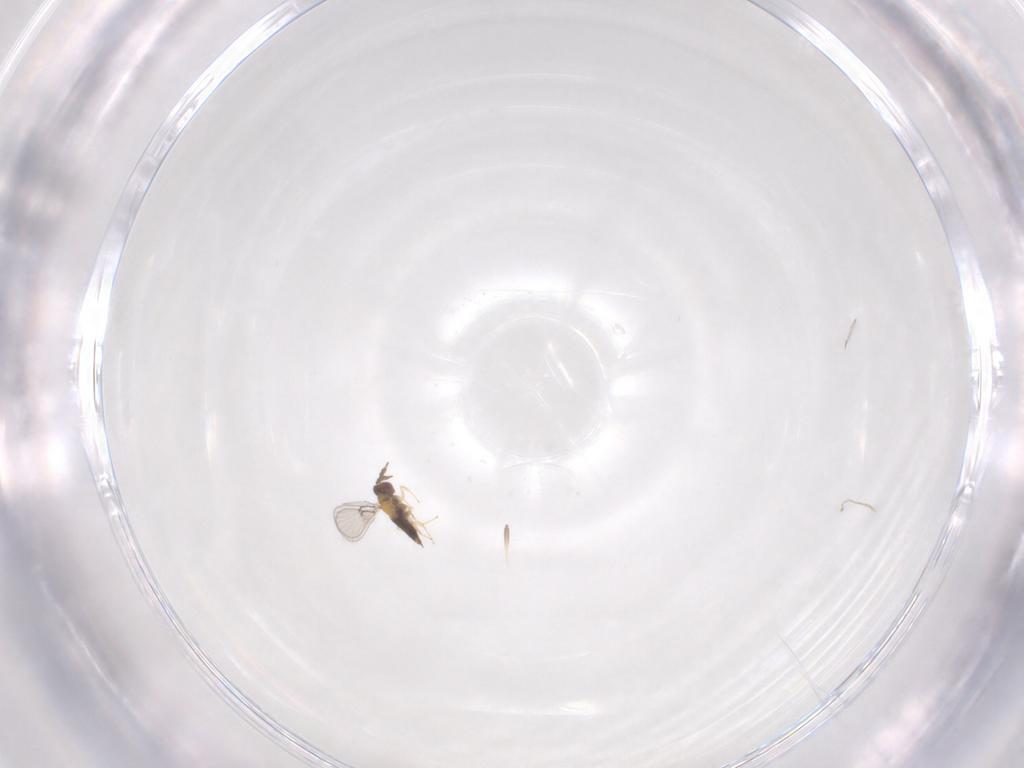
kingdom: Animalia
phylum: Arthropoda
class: Insecta
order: Hymenoptera
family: Trichogrammatidae
